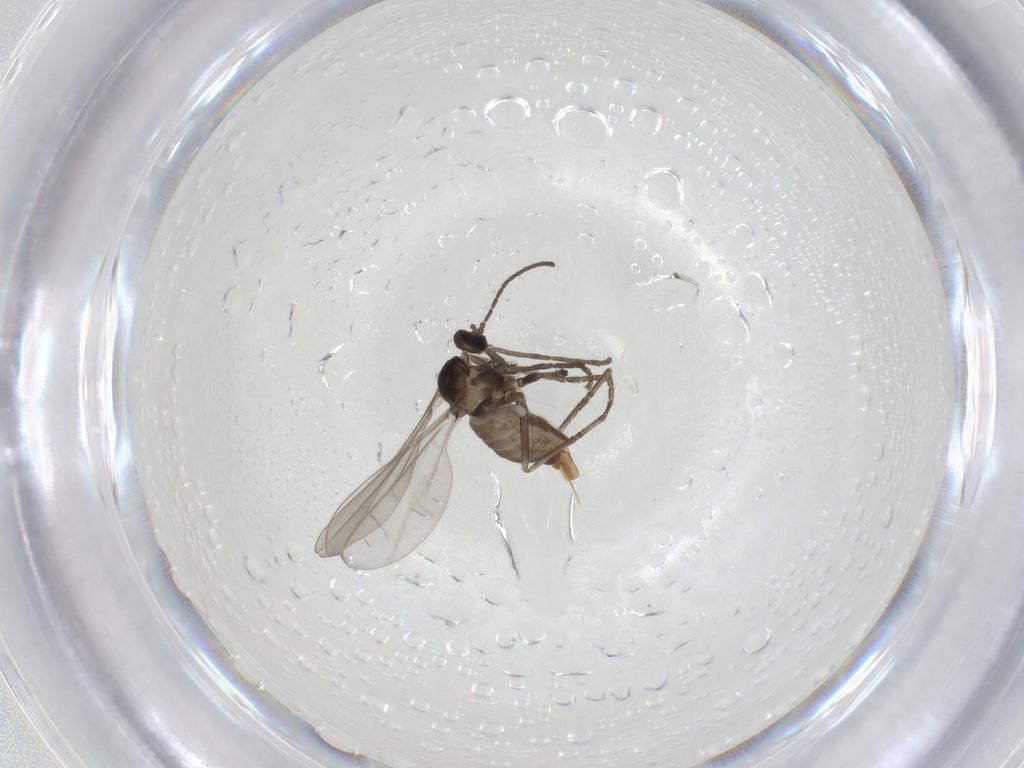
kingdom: Animalia
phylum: Arthropoda
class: Insecta
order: Diptera
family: Cecidomyiidae
